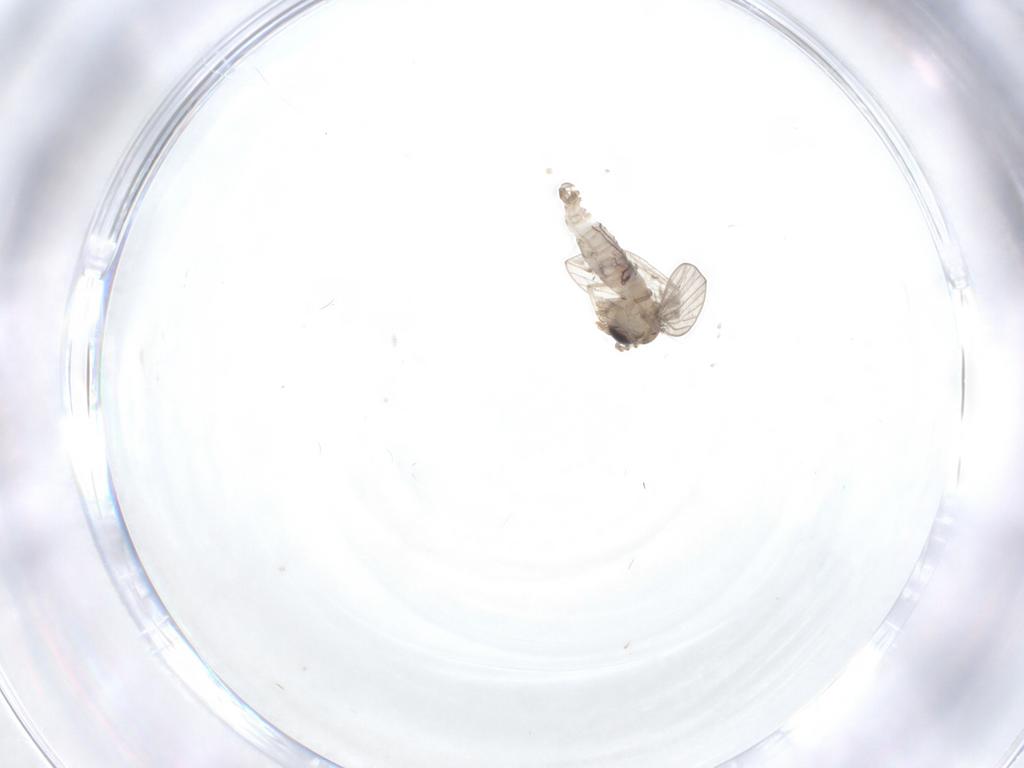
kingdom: Animalia
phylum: Arthropoda
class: Insecta
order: Diptera
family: Psychodidae
